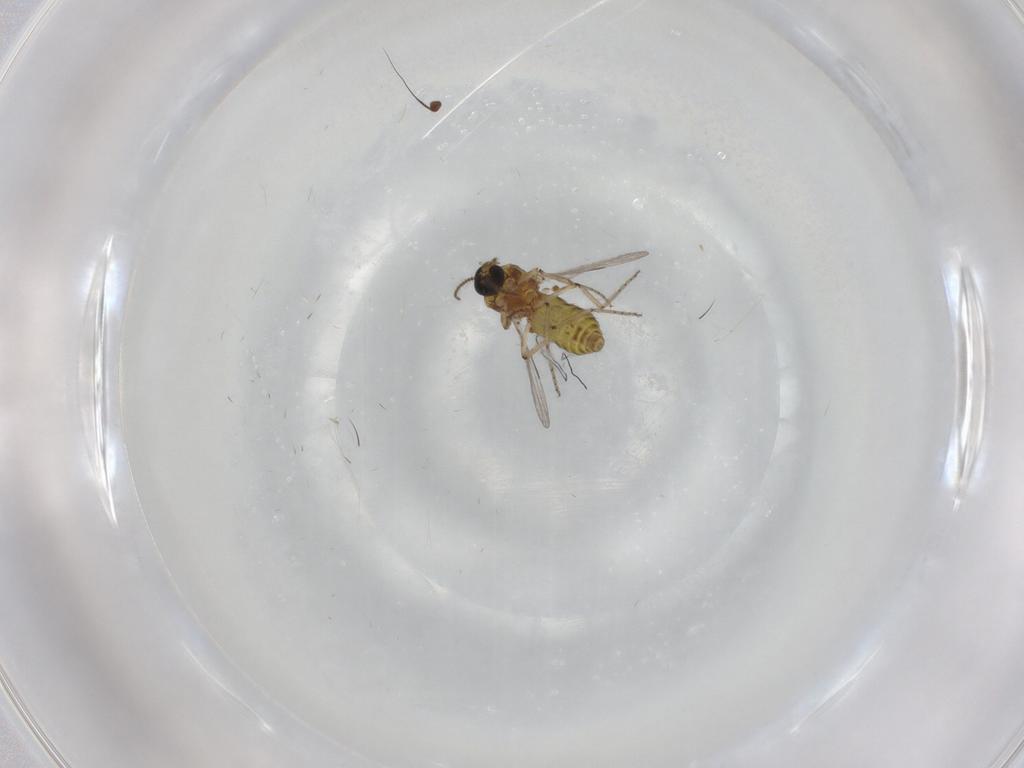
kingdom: Animalia
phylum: Arthropoda
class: Insecta
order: Diptera
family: Ceratopogonidae
